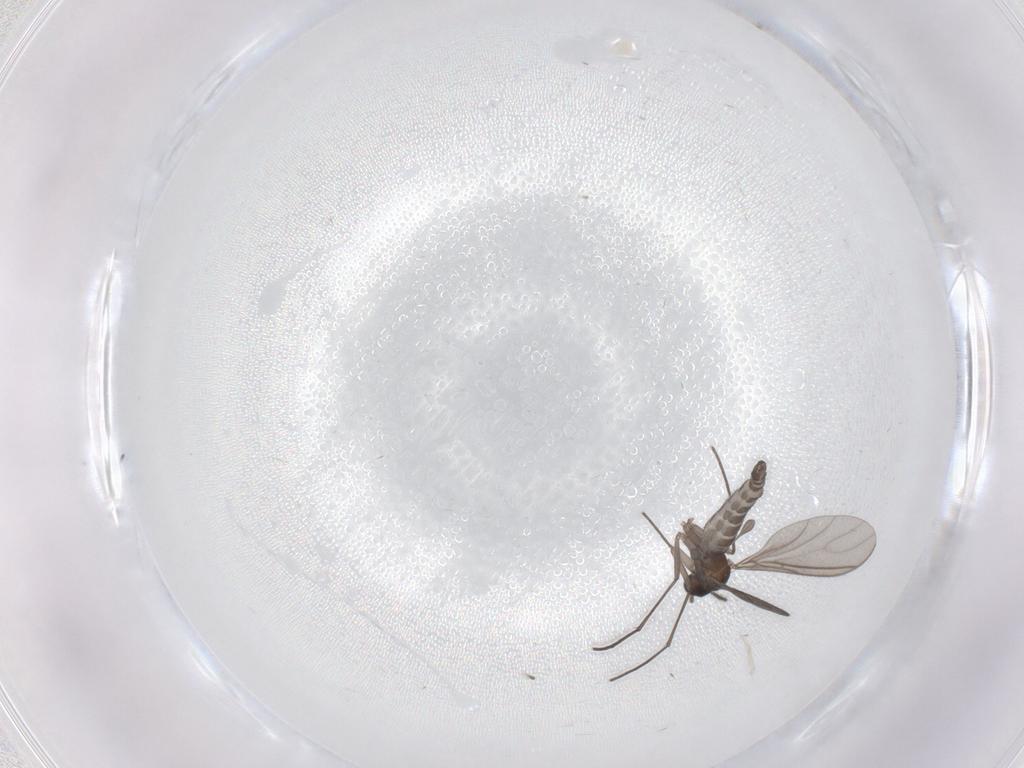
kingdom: Animalia
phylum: Arthropoda
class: Insecta
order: Diptera
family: Sciaridae
